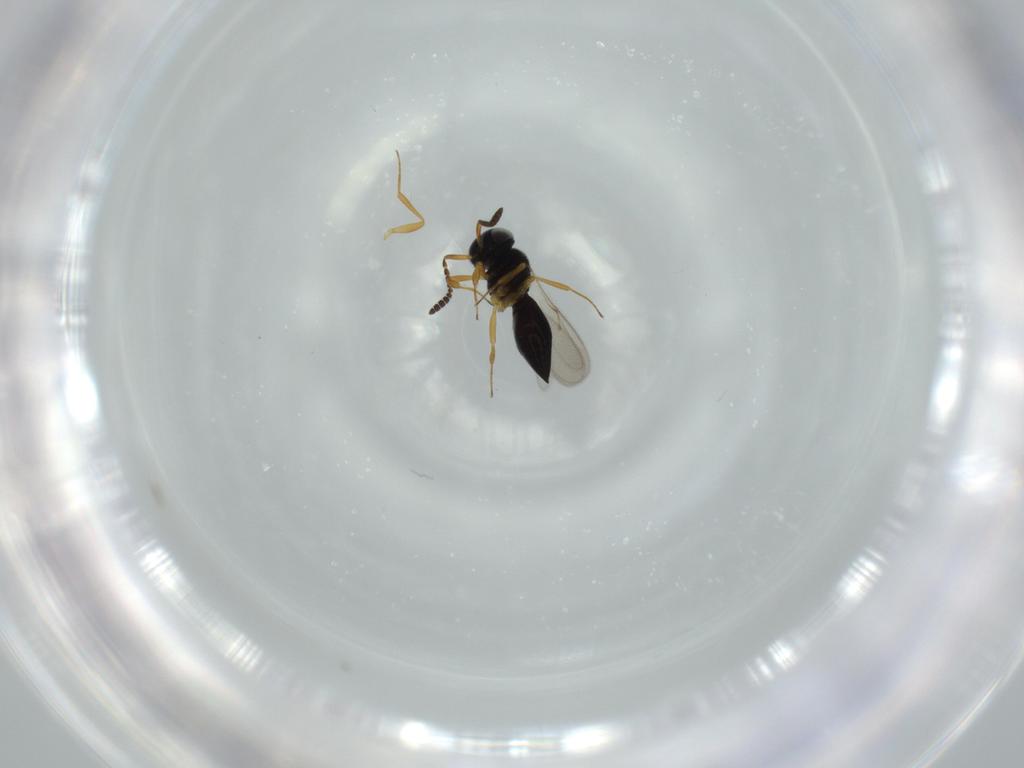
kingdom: Animalia
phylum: Arthropoda
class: Insecta
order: Hymenoptera
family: Scelionidae
